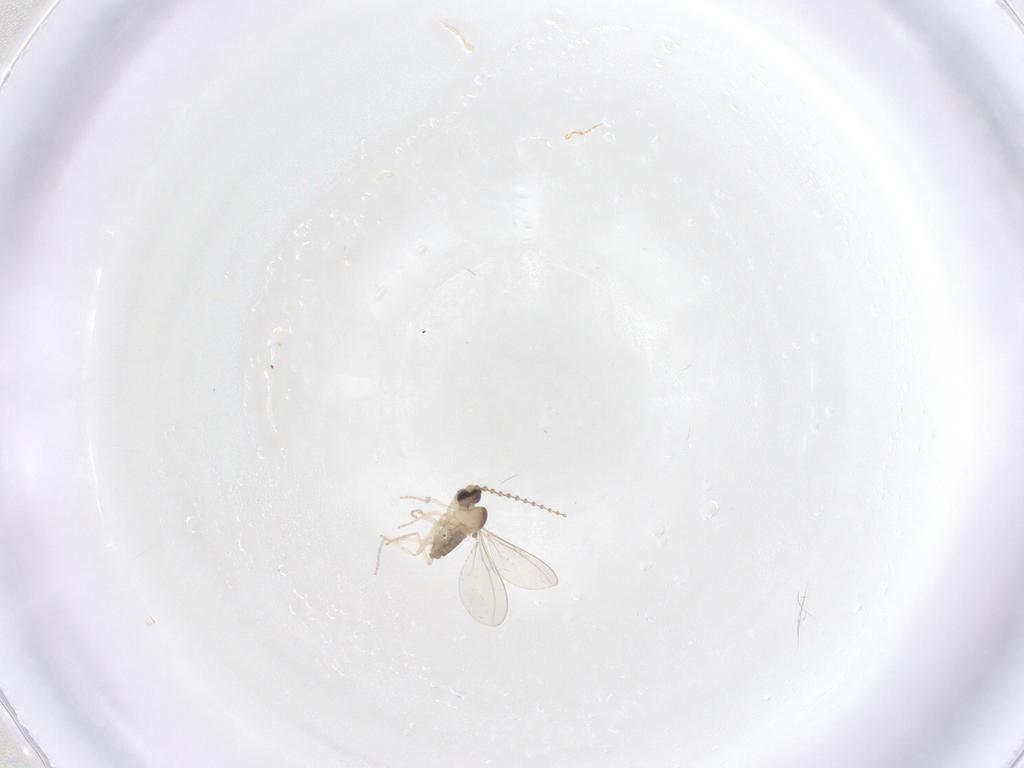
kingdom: Animalia
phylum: Arthropoda
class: Insecta
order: Diptera
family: Cecidomyiidae
